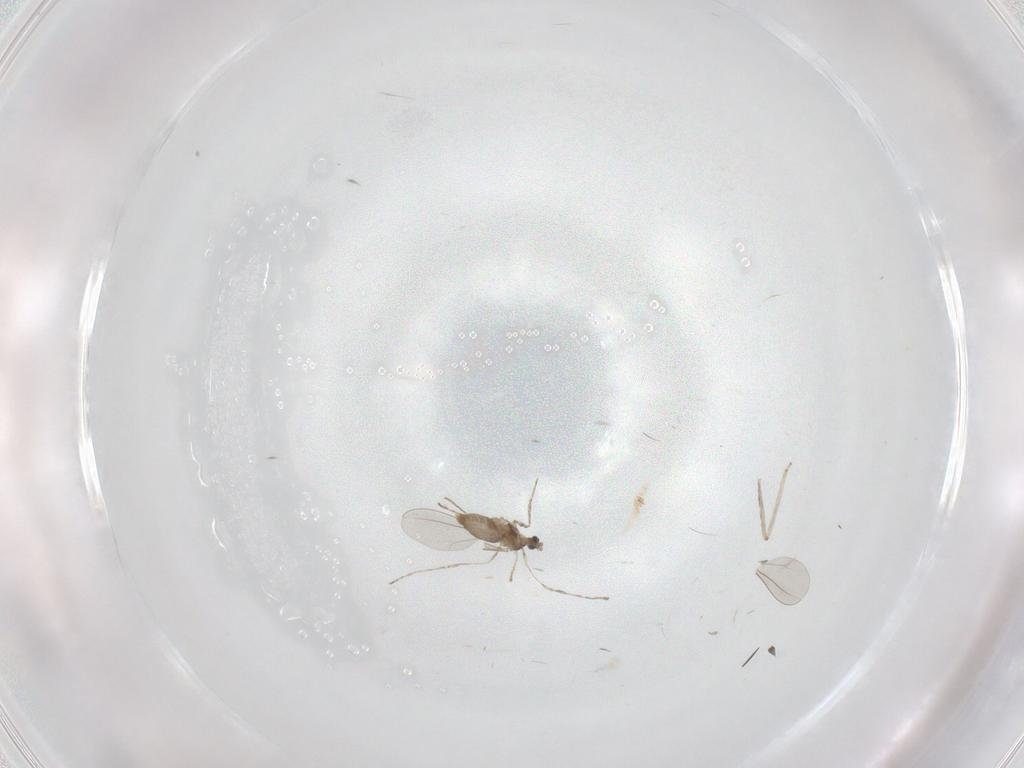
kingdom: Animalia
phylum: Arthropoda
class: Insecta
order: Diptera
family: Cecidomyiidae
